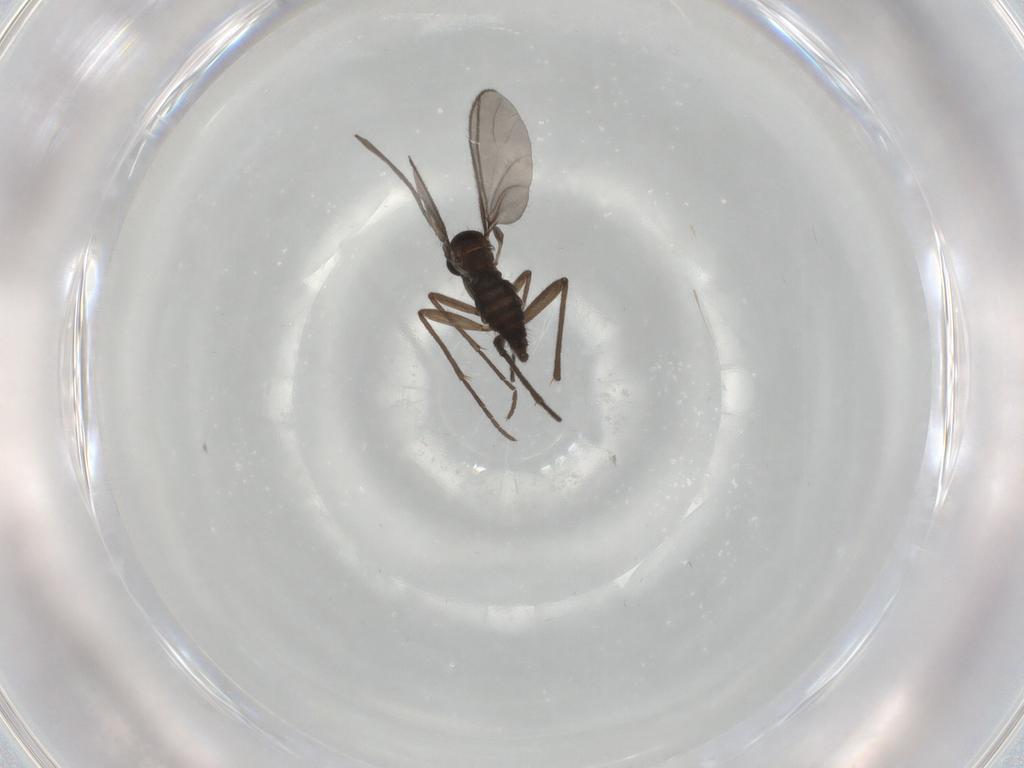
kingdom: Animalia
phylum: Arthropoda
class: Insecta
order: Diptera
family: Sciaridae
